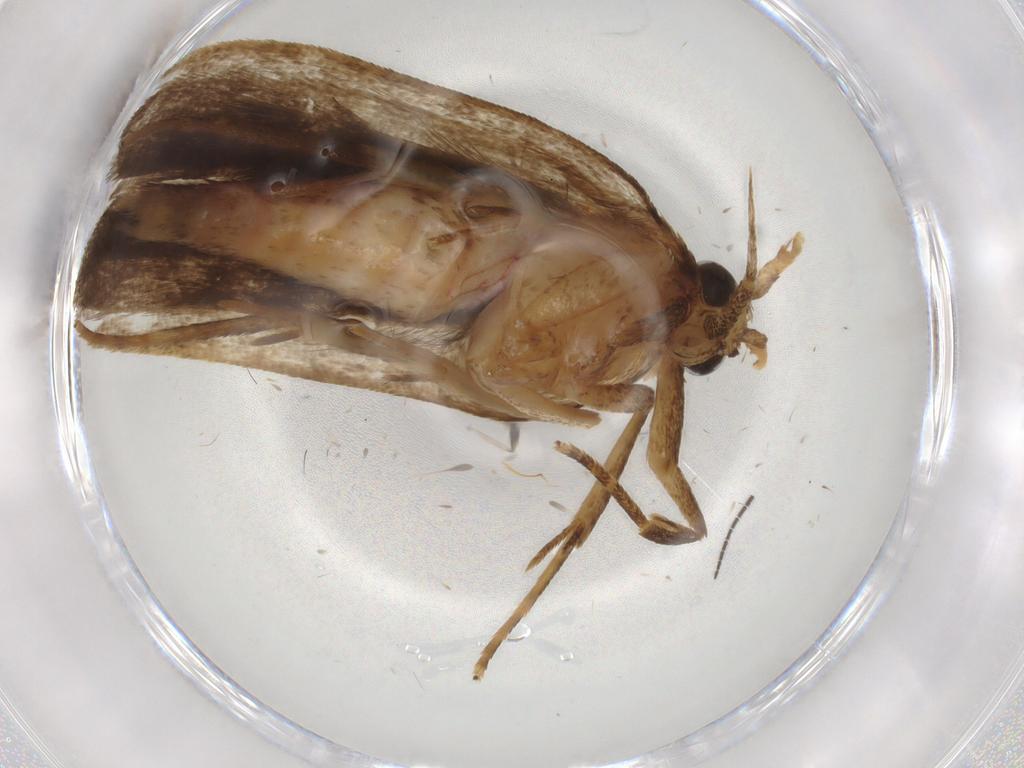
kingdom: Animalia
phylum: Arthropoda
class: Insecta
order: Lepidoptera
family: Autostichidae
